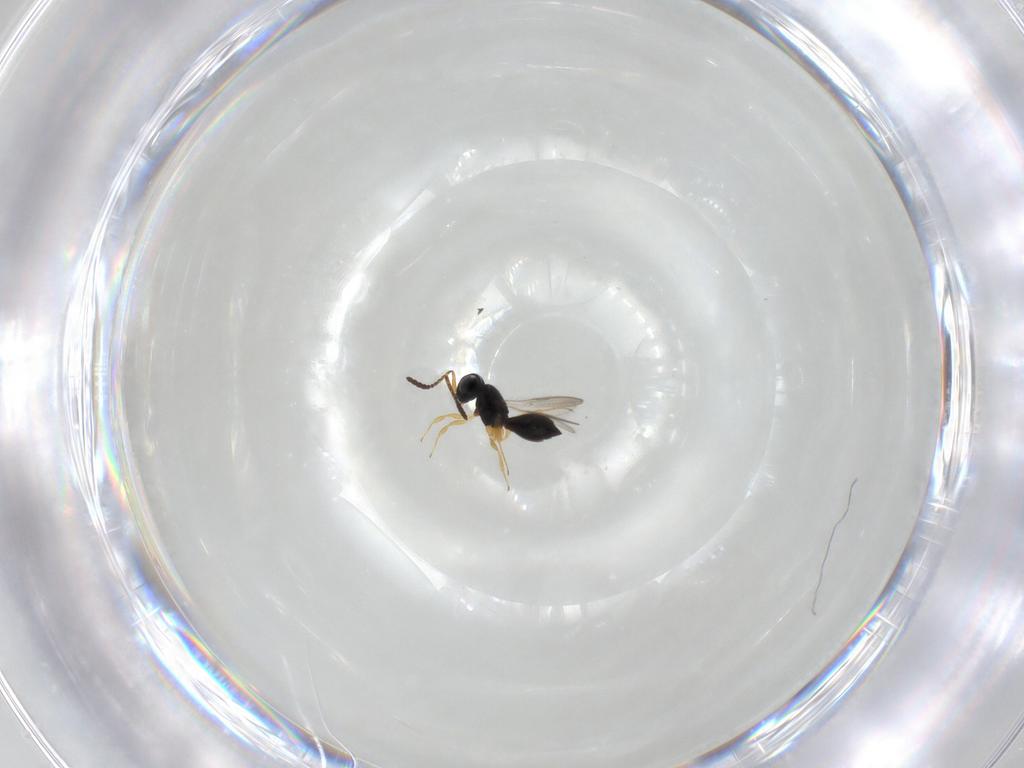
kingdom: Animalia
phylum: Arthropoda
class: Insecta
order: Hymenoptera
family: Scelionidae
